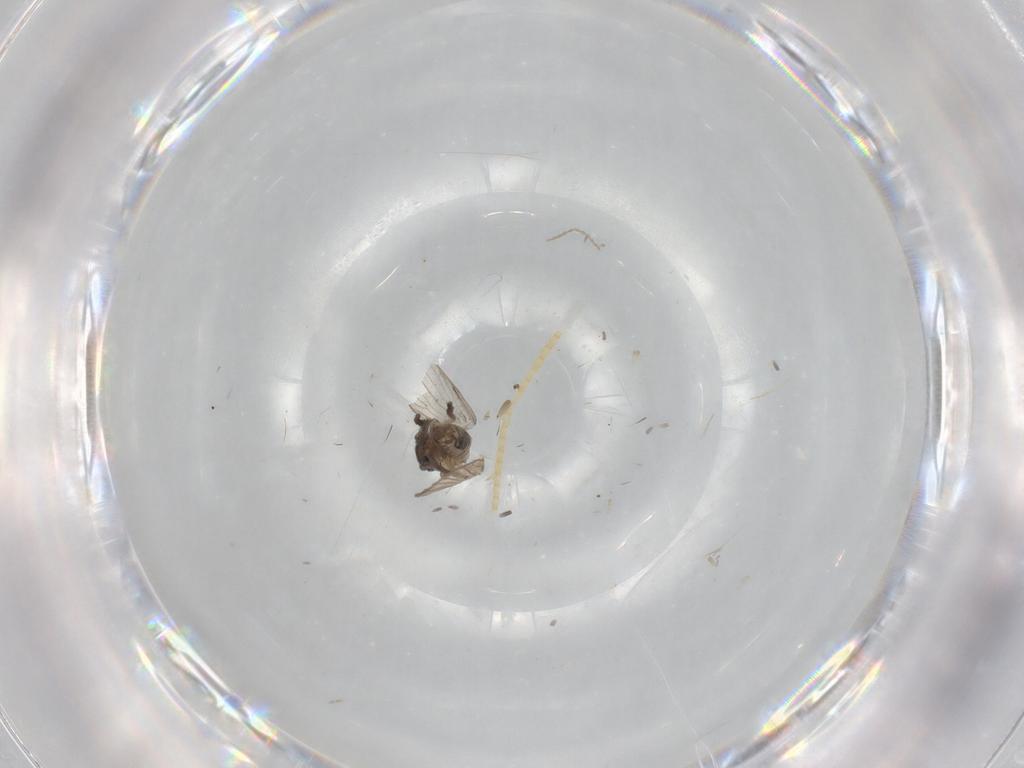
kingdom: Animalia
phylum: Arthropoda
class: Insecta
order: Diptera
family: Psychodidae
